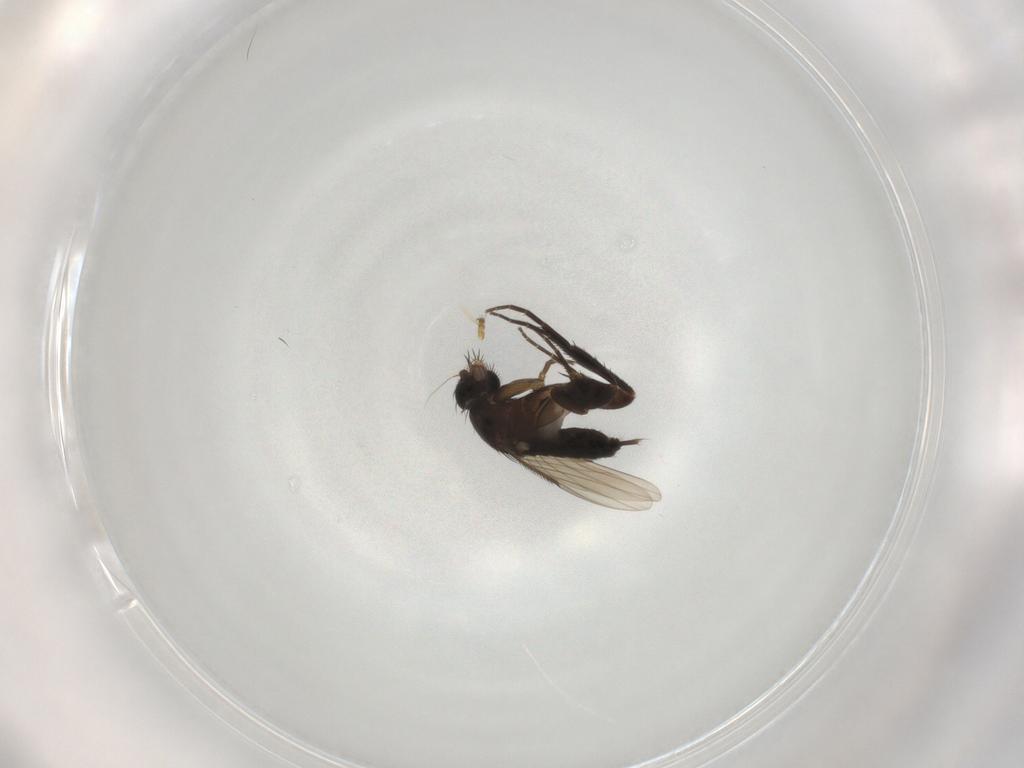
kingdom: Animalia
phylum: Arthropoda
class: Insecta
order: Diptera
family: Phoridae
